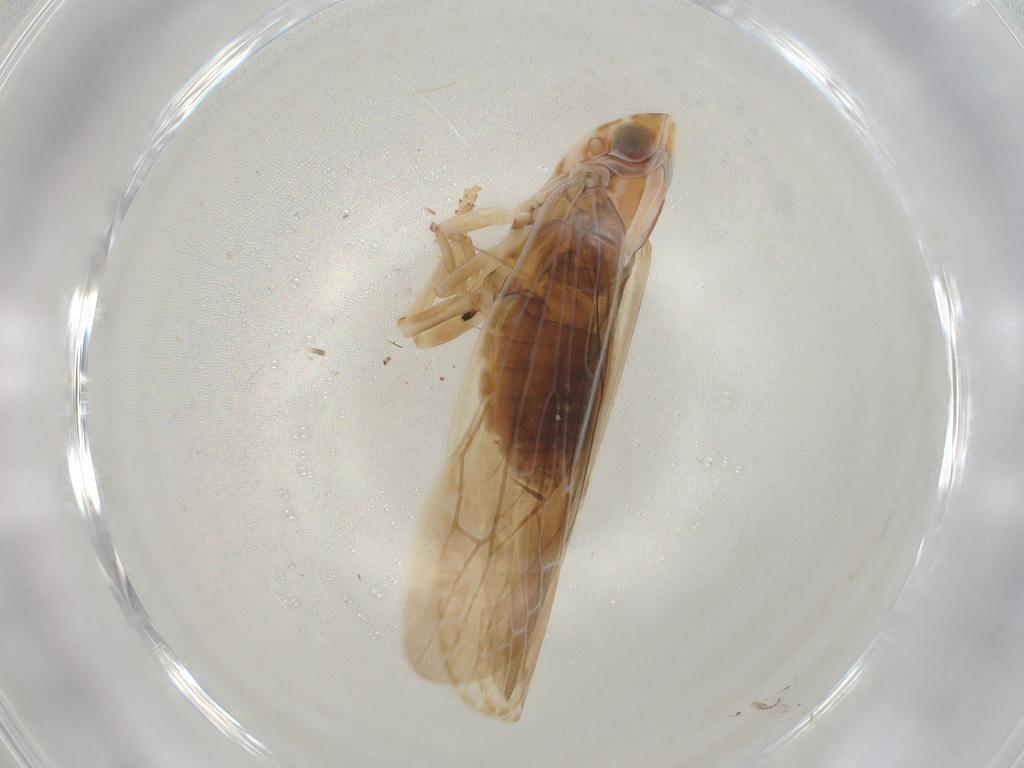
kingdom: Animalia
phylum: Arthropoda
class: Insecta
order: Hemiptera
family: Achilidae
